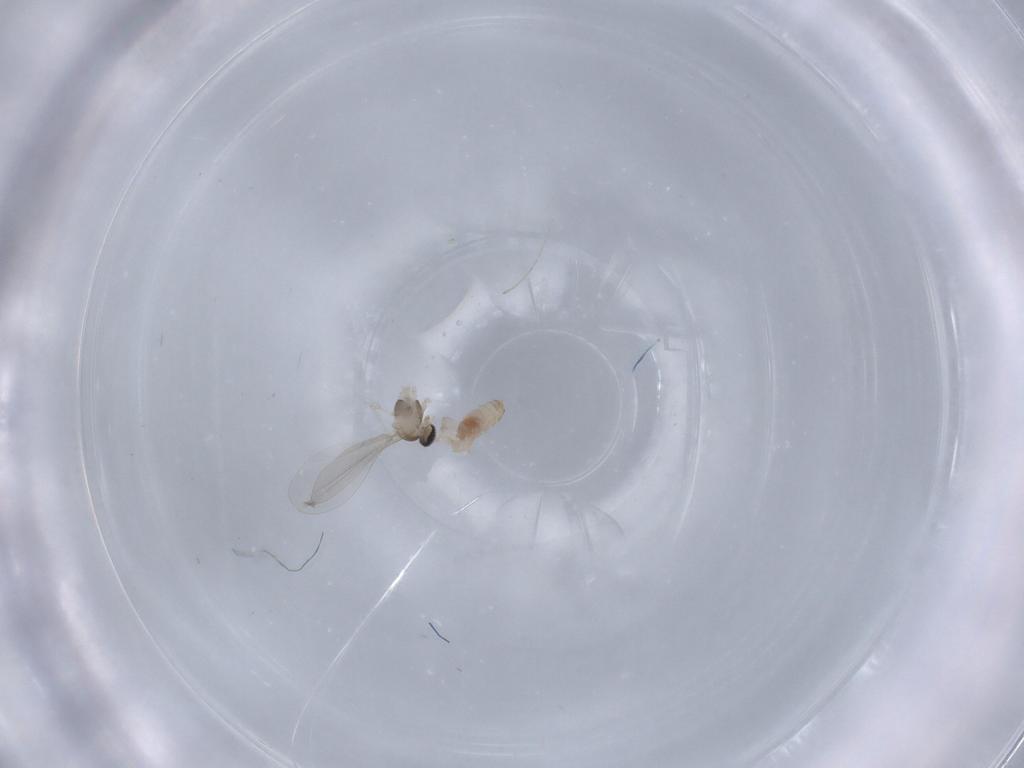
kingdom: Animalia
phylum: Arthropoda
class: Insecta
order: Diptera
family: Cecidomyiidae
